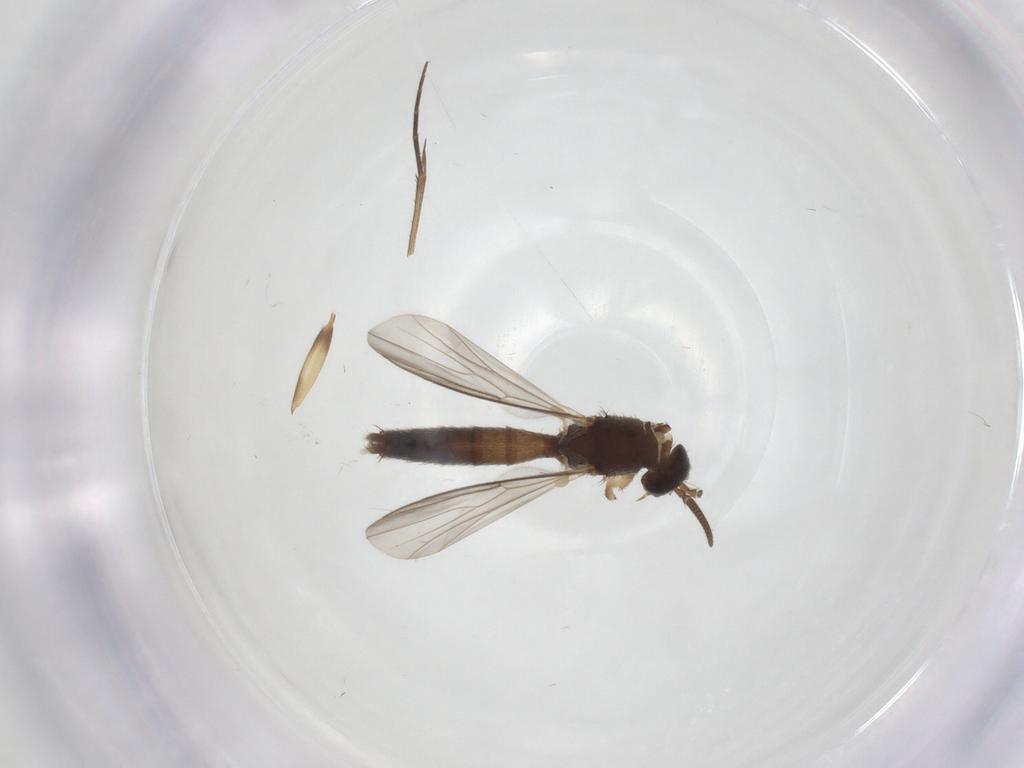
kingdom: Animalia
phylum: Arthropoda
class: Insecta
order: Diptera
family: Mycetophilidae
